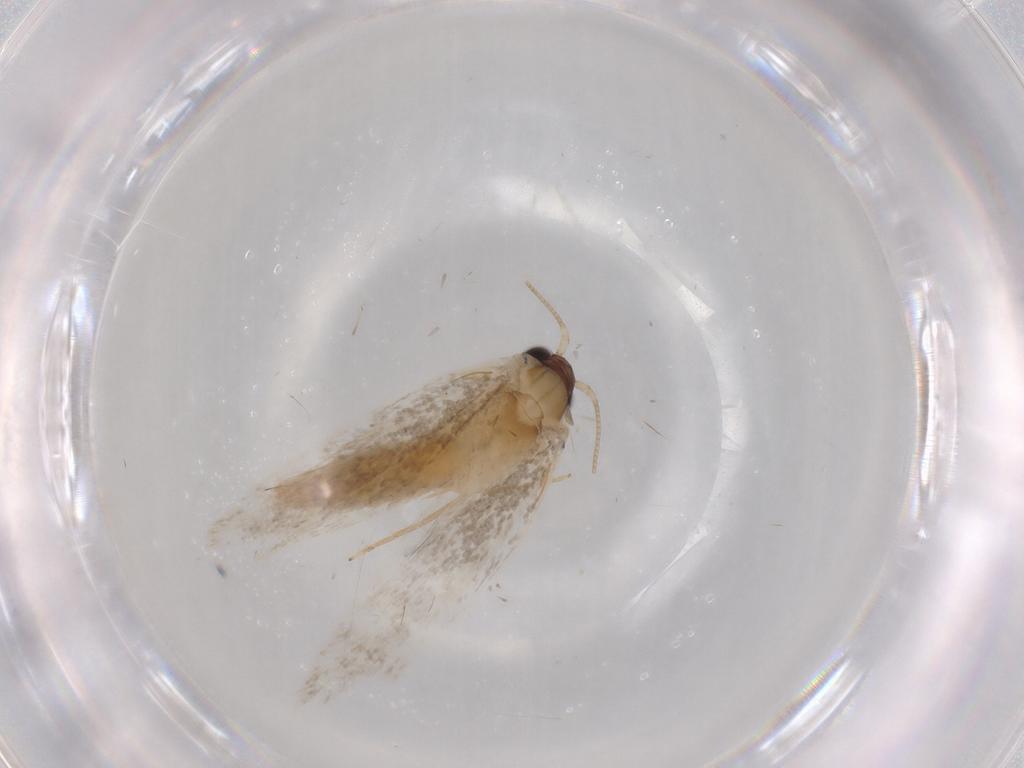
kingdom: Animalia
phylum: Arthropoda
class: Insecta
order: Lepidoptera
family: Tineidae
